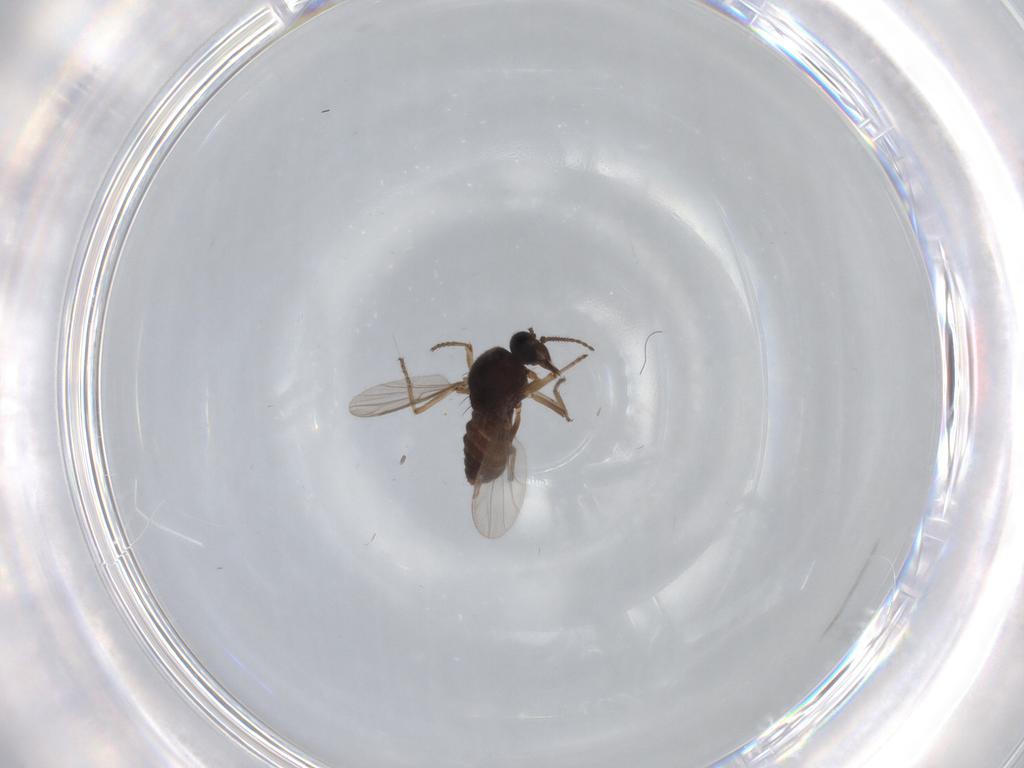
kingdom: Animalia
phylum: Arthropoda
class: Insecta
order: Diptera
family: Ceratopogonidae
